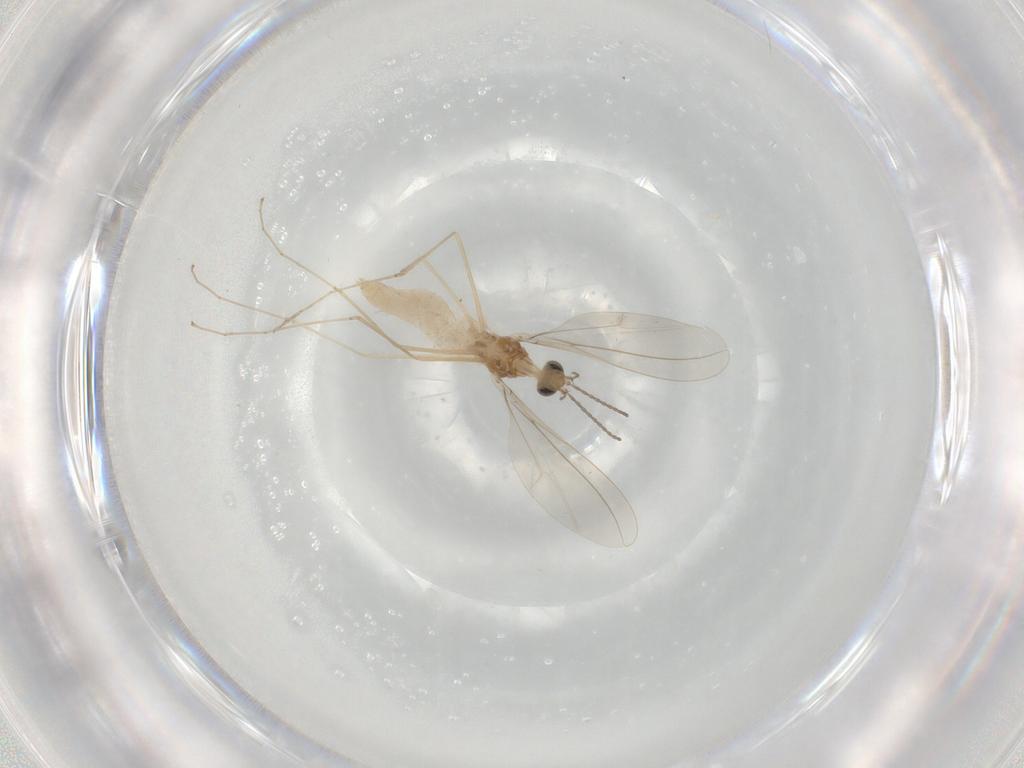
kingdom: Animalia
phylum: Arthropoda
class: Insecta
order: Diptera
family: Cecidomyiidae
